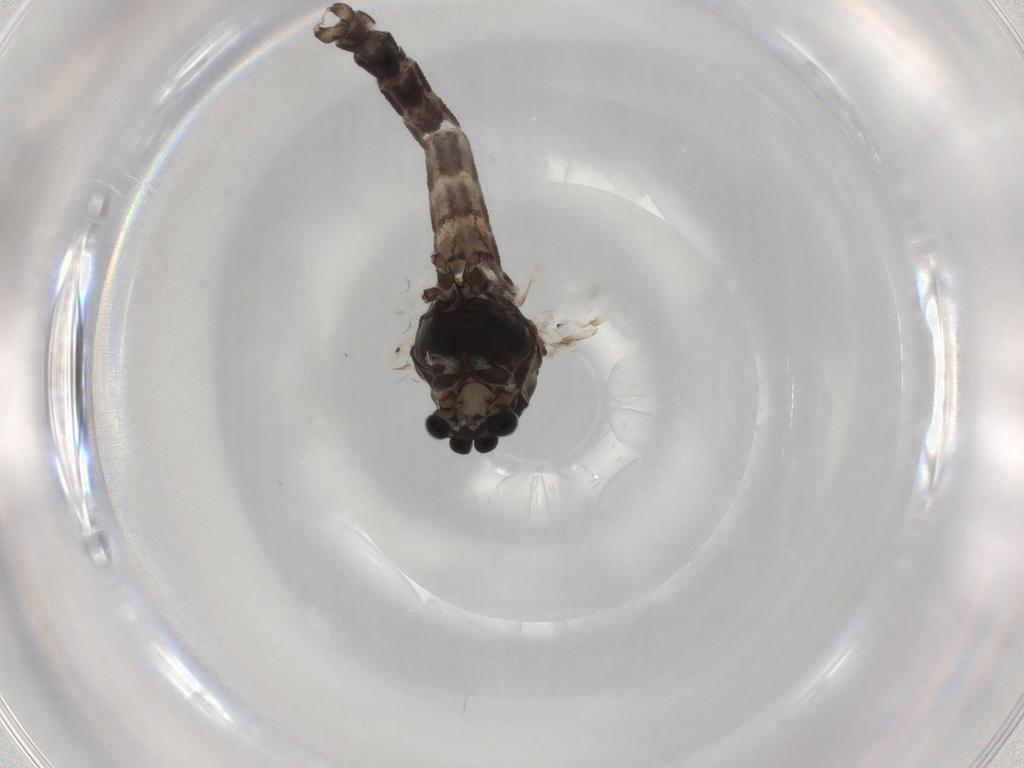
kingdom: Animalia
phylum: Arthropoda
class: Insecta
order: Diptera
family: Chironomidae
